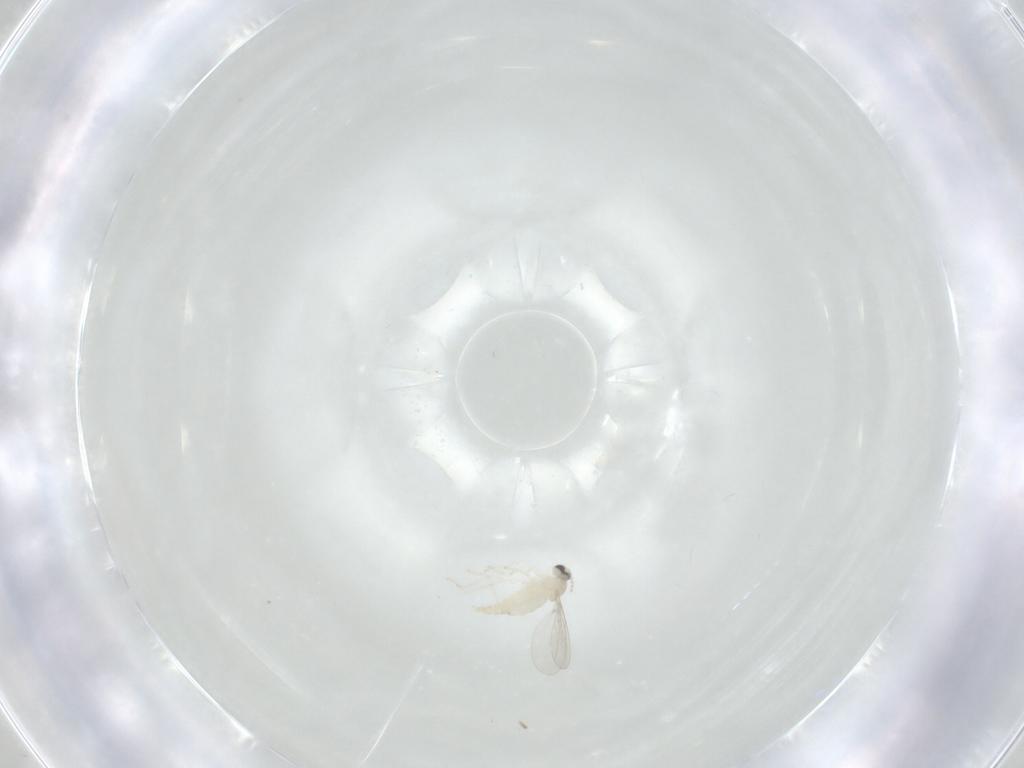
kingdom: Animalia
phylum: Arthropoda
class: Insecta
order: Diptera
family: Cecidomyiidae
